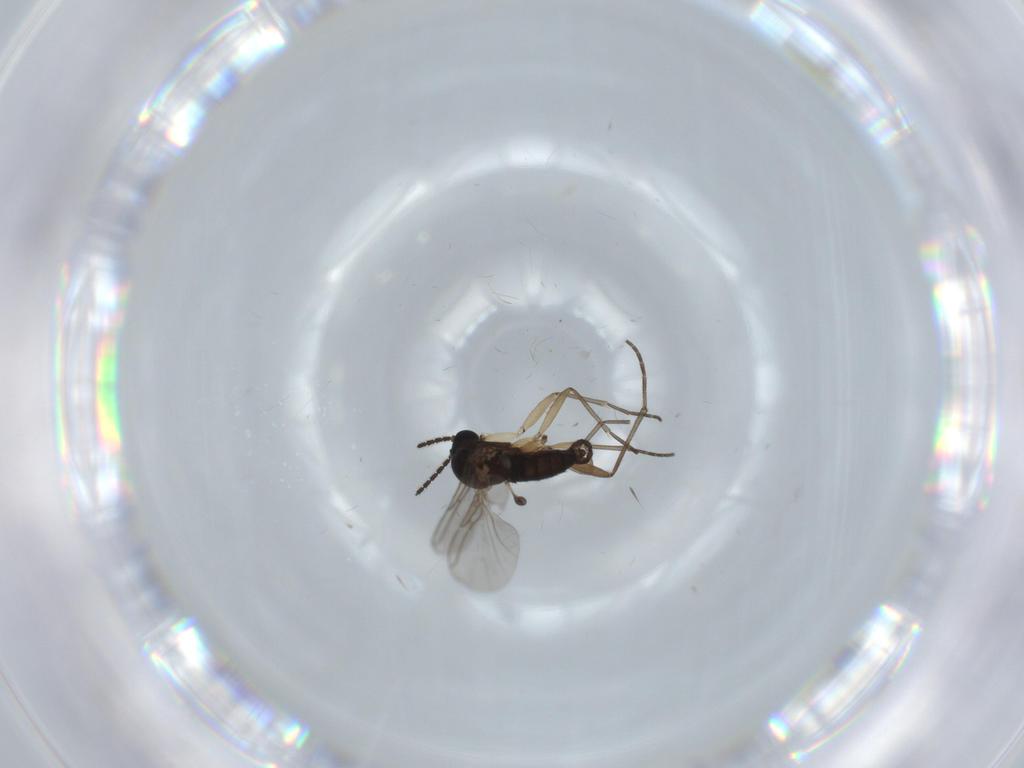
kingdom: Animalia
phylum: Arthropoda
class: Insecta
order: Diptera
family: Sciaridae
